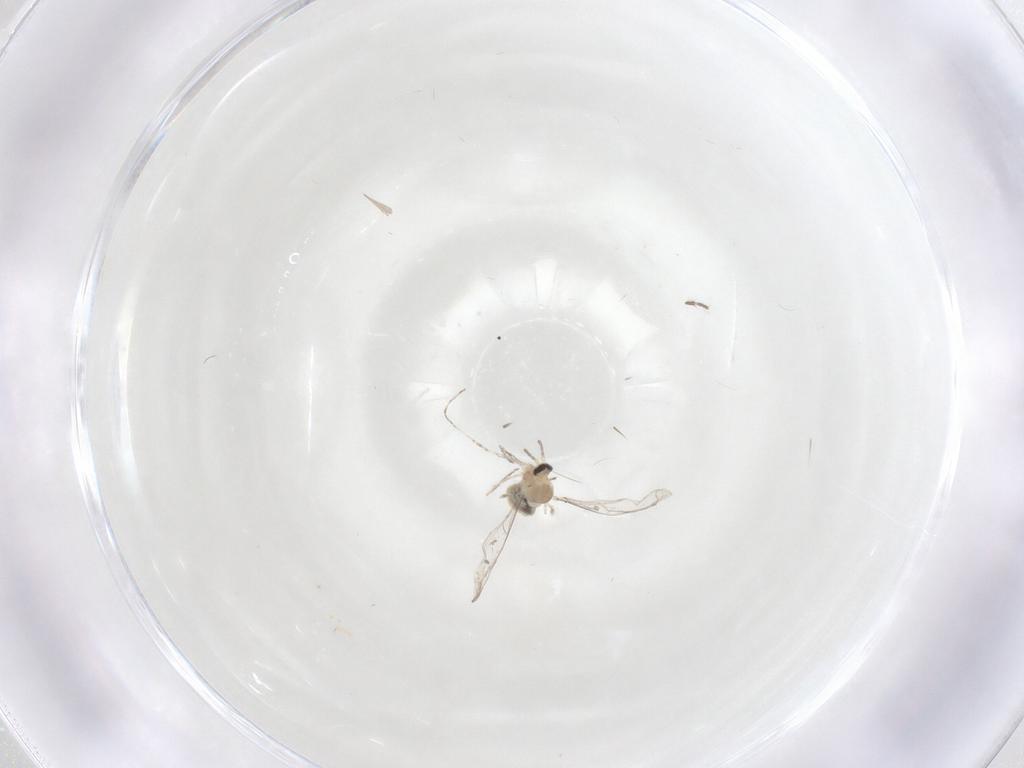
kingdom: Animalia
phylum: Arthropoda
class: Insecta
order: Diptera
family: Cecidomyiidae
